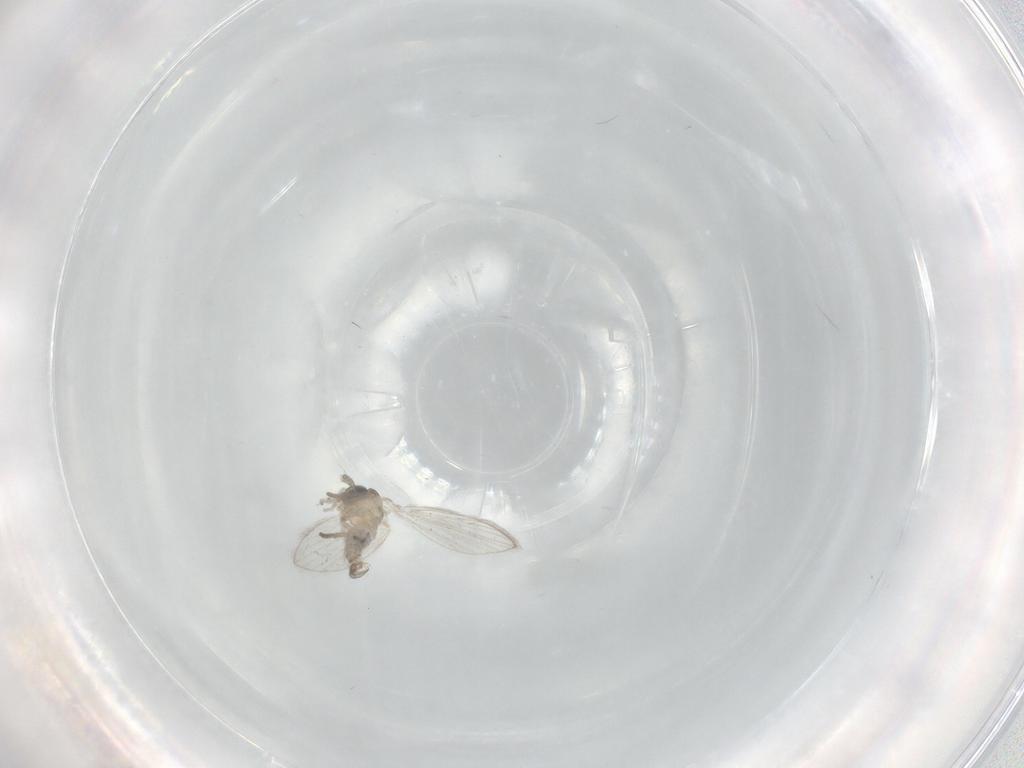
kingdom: Animalia
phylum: Arthropoda
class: Insecta
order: Diptera
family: Psychodidae
